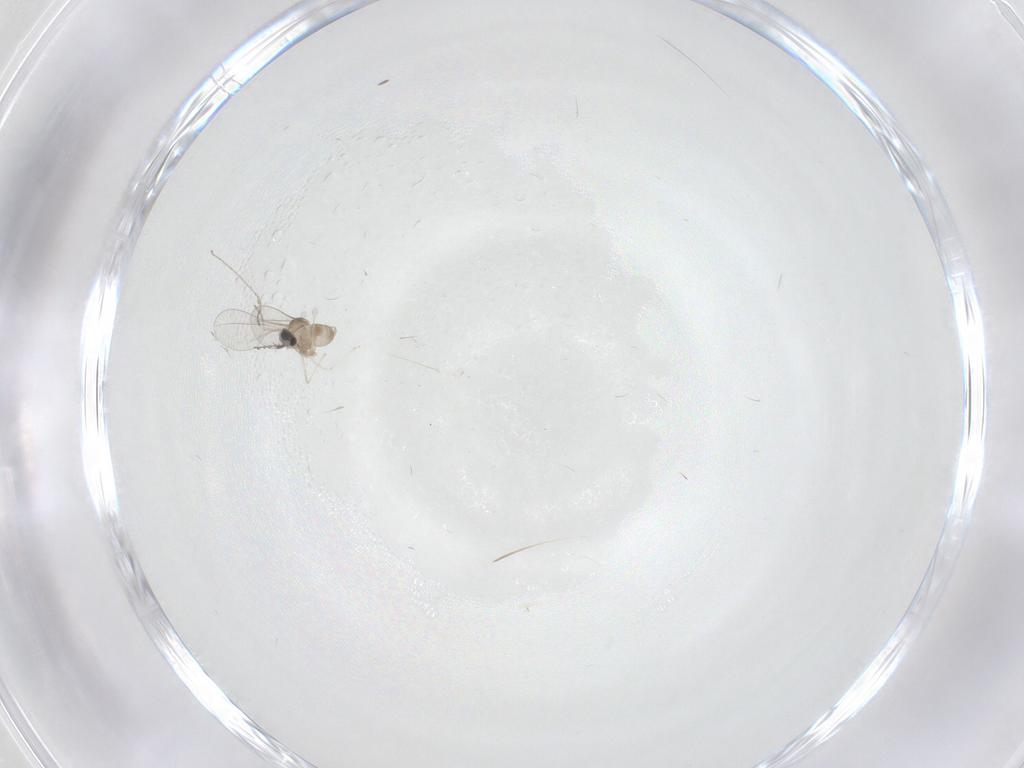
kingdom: Animalia
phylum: Arthropoda
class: Insecta
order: Diptera
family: Cecidomyiidae
